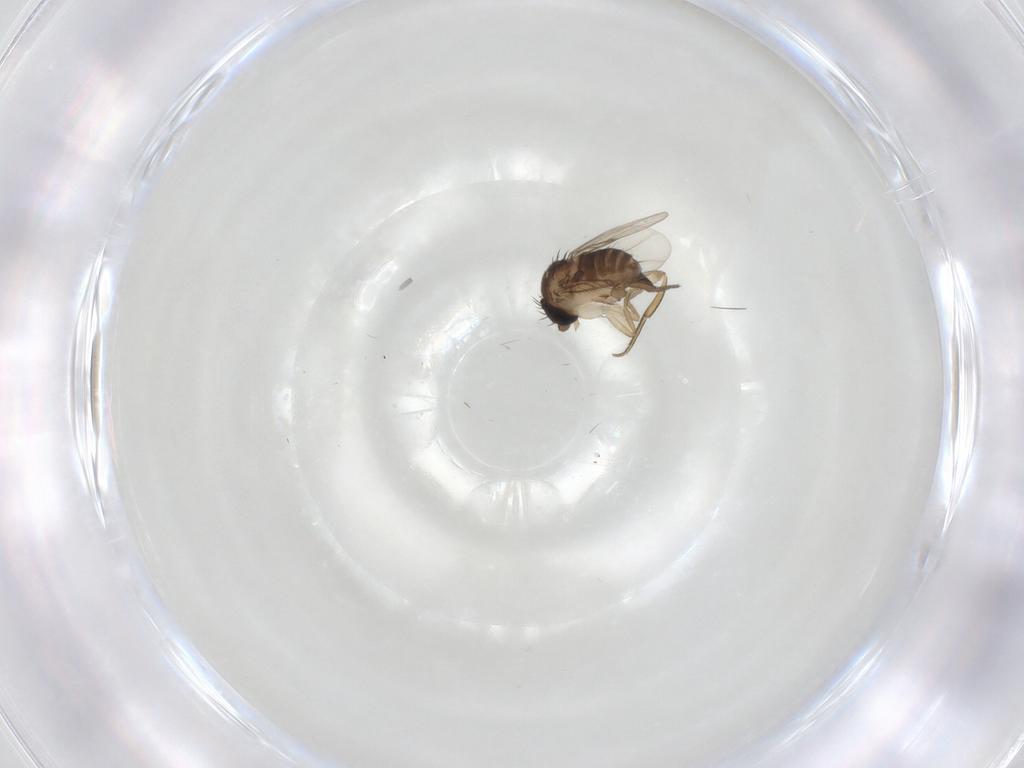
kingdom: Animalia
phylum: Arthropoda
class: Insecta
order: Diptera
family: Phoridae
